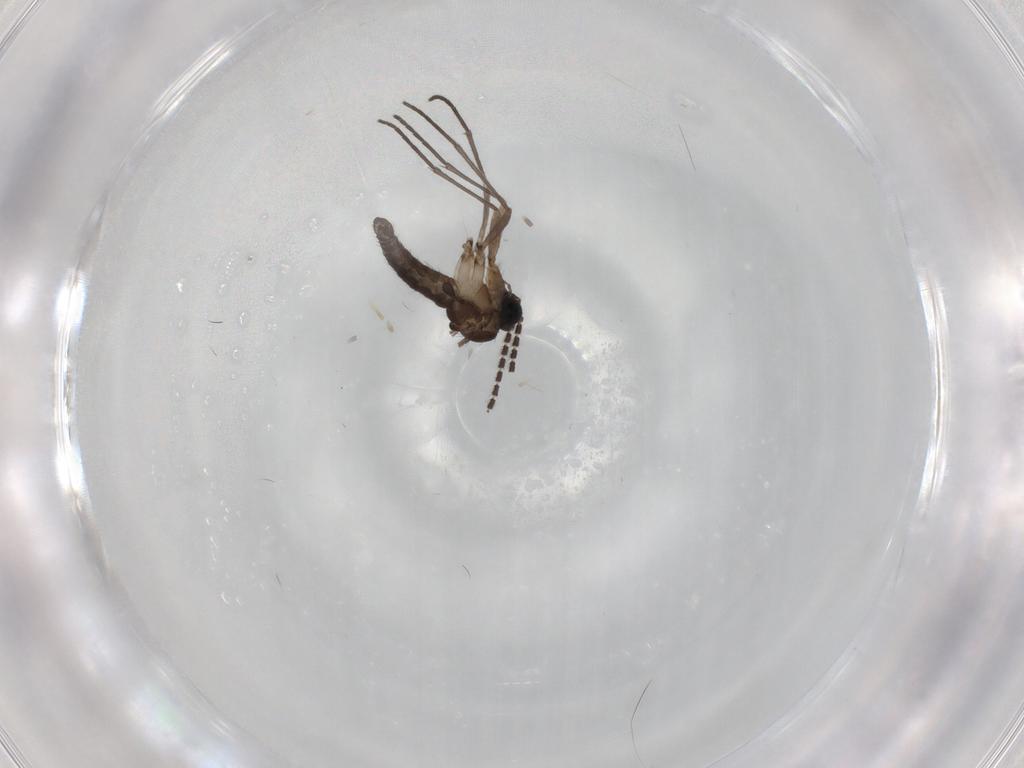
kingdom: Animalia
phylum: Arthropoda
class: Insecta
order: Diptera
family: Sciaridae
